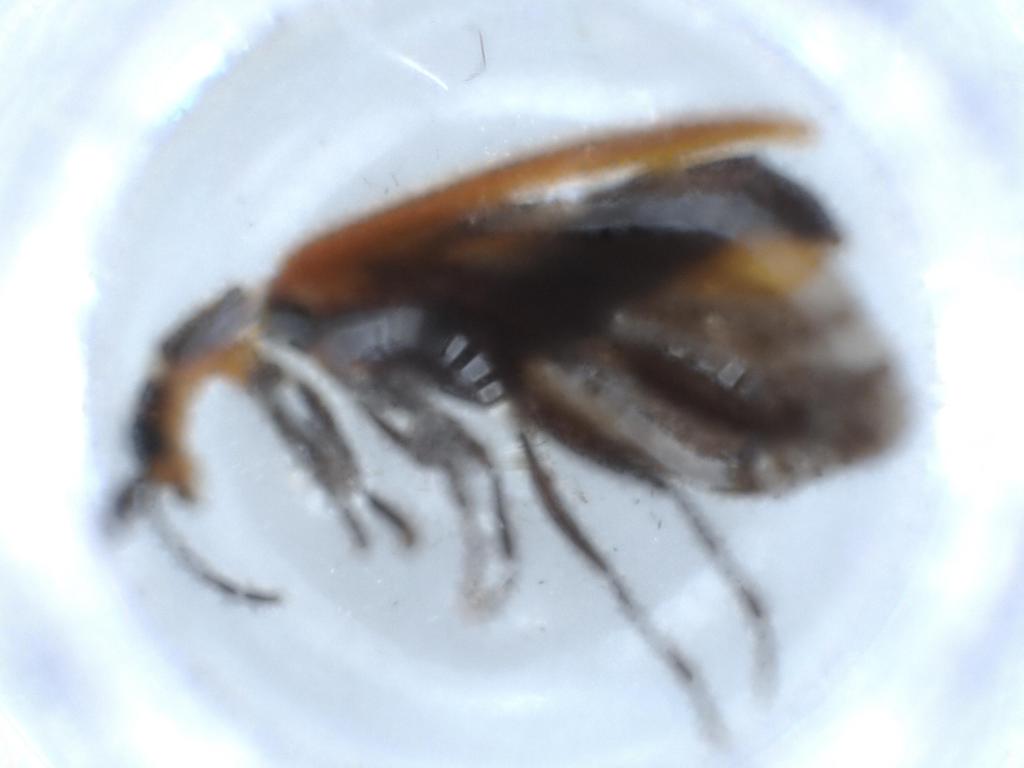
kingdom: Animalia
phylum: Arthropoda
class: Insecta
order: Coleoptera
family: Cleridae
